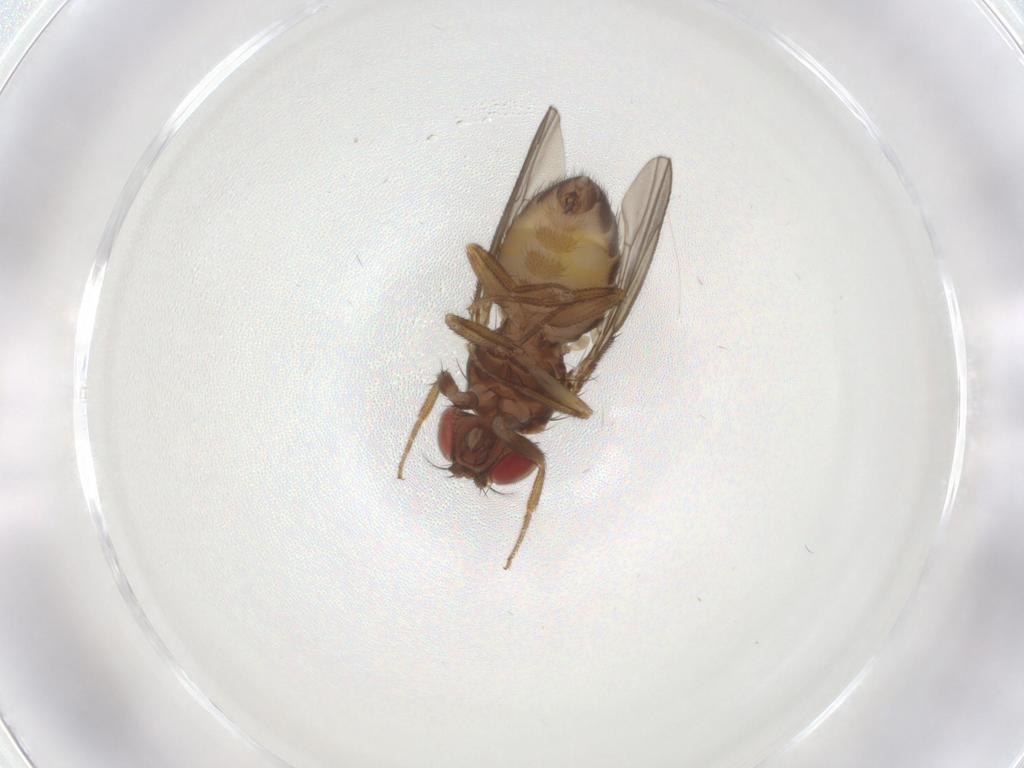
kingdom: Animalia
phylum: Arthropoda
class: Insecta
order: Diptera
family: Drosophilidae
